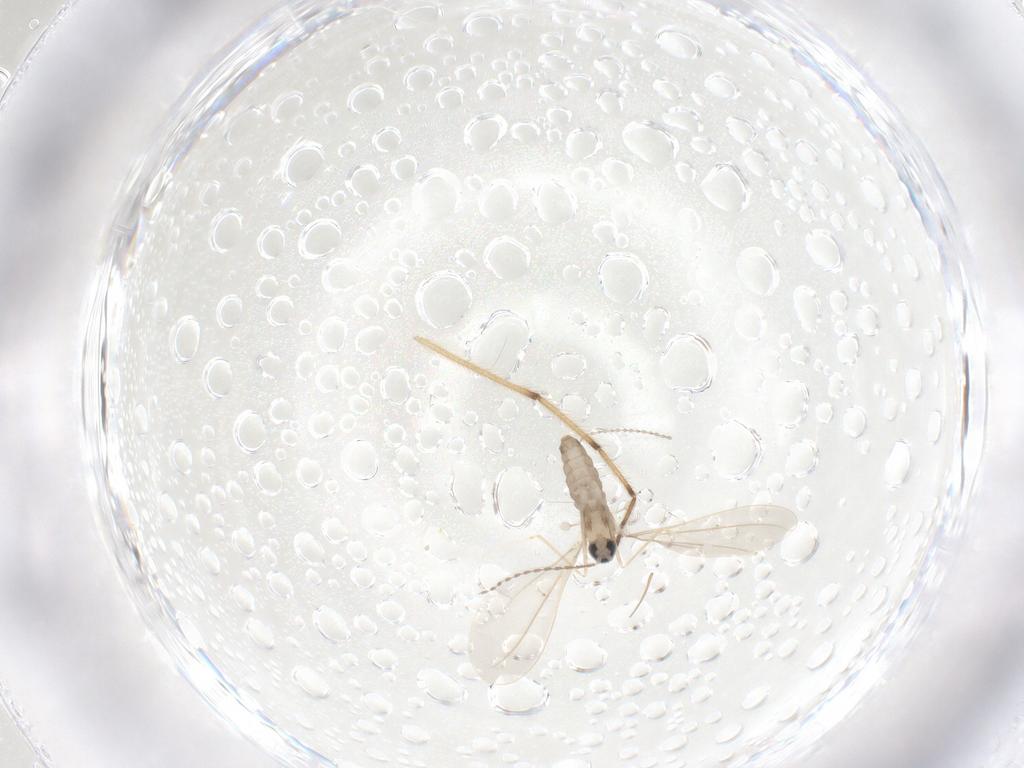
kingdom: Animalia
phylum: Arthropoda
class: Insecta
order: Diptera
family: Cecidomyiidae
